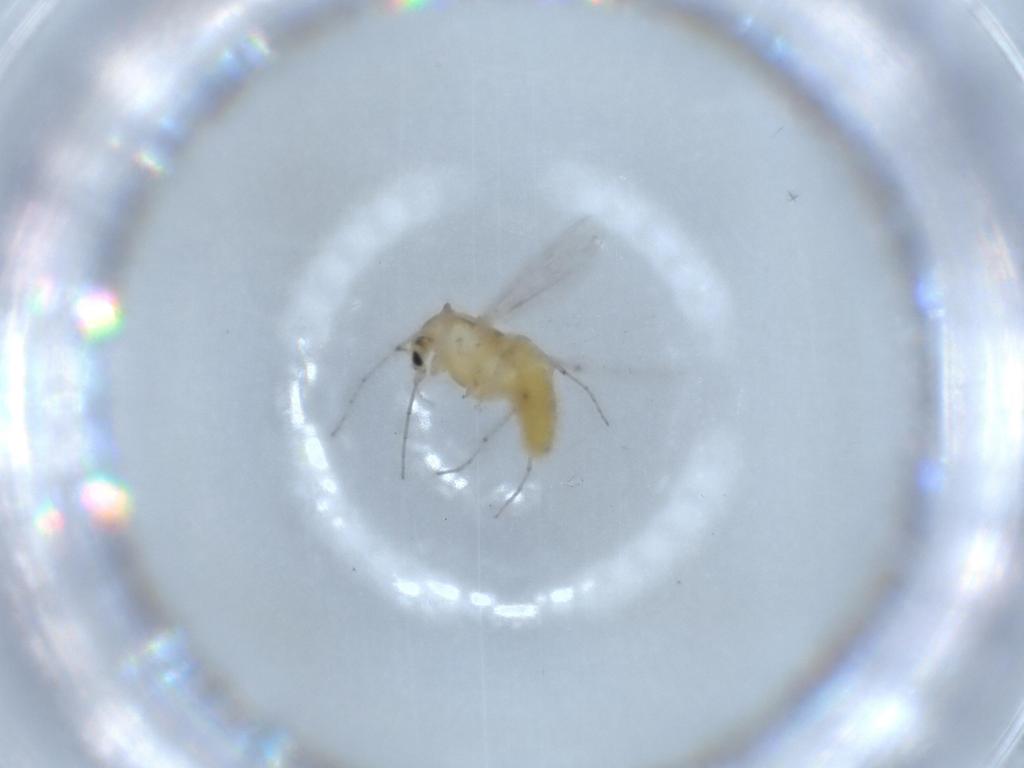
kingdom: Animalia
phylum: Arthropoda
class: Insecta
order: Diptera
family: Chironomidae
